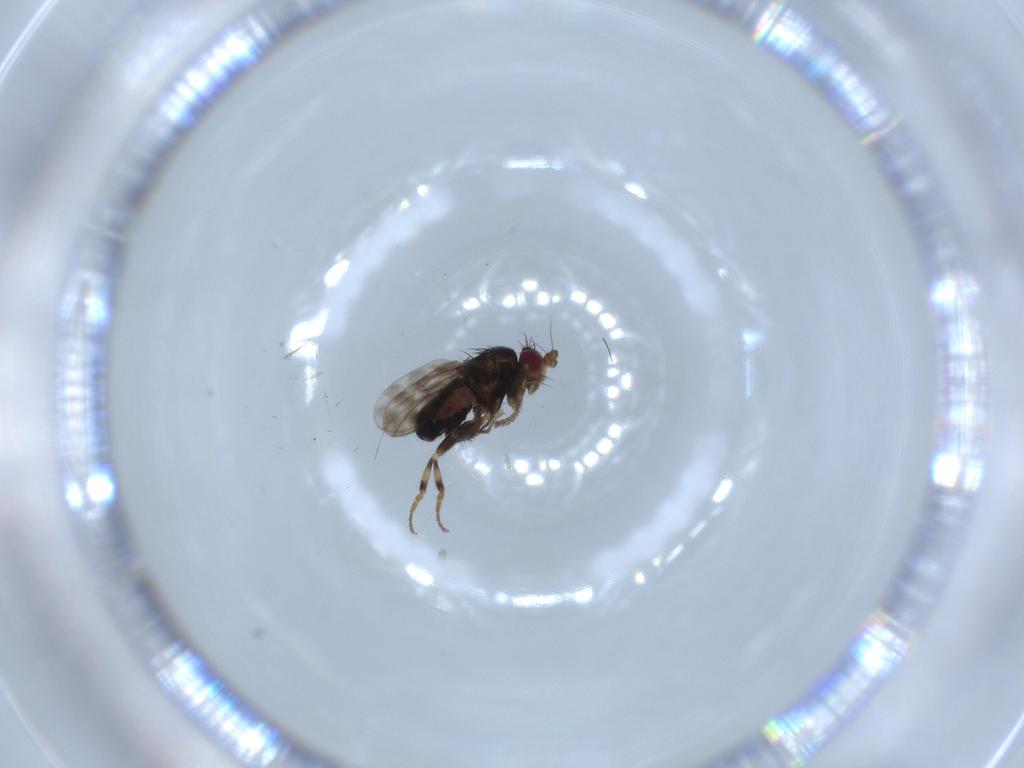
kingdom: Animalia
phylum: Arthropoda
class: Insecta
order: Diptera
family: Sphaeroceridae
